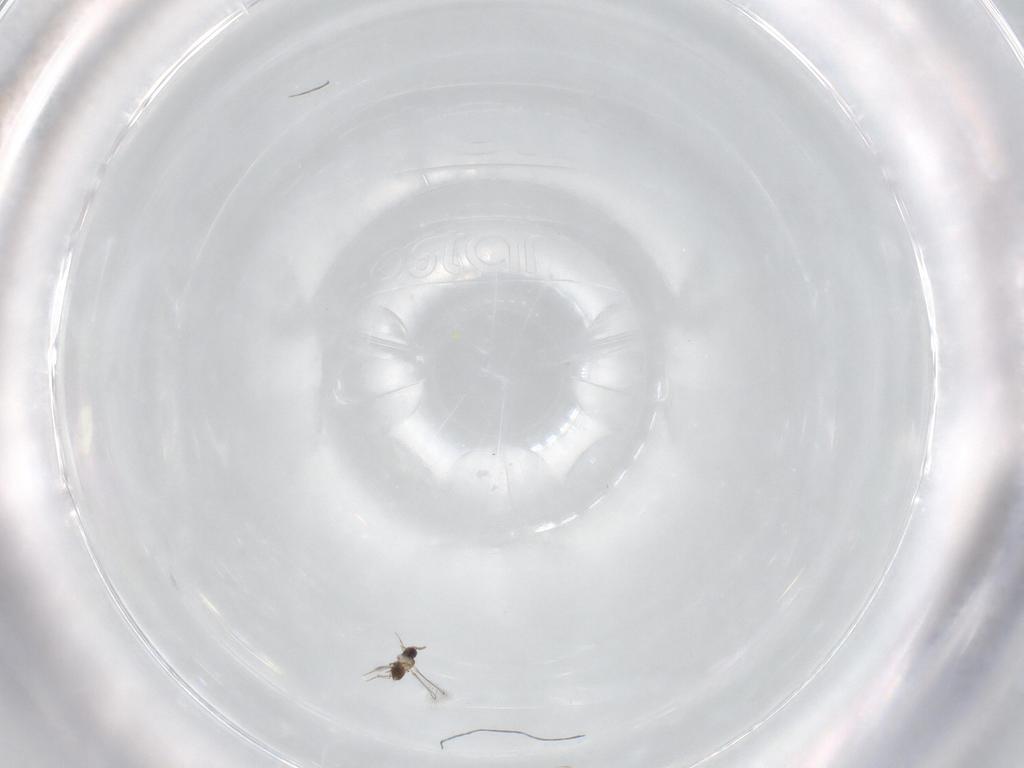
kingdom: Animalia
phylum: Arthropoda
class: Insecta
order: Hymenoptera
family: Mymaridae
